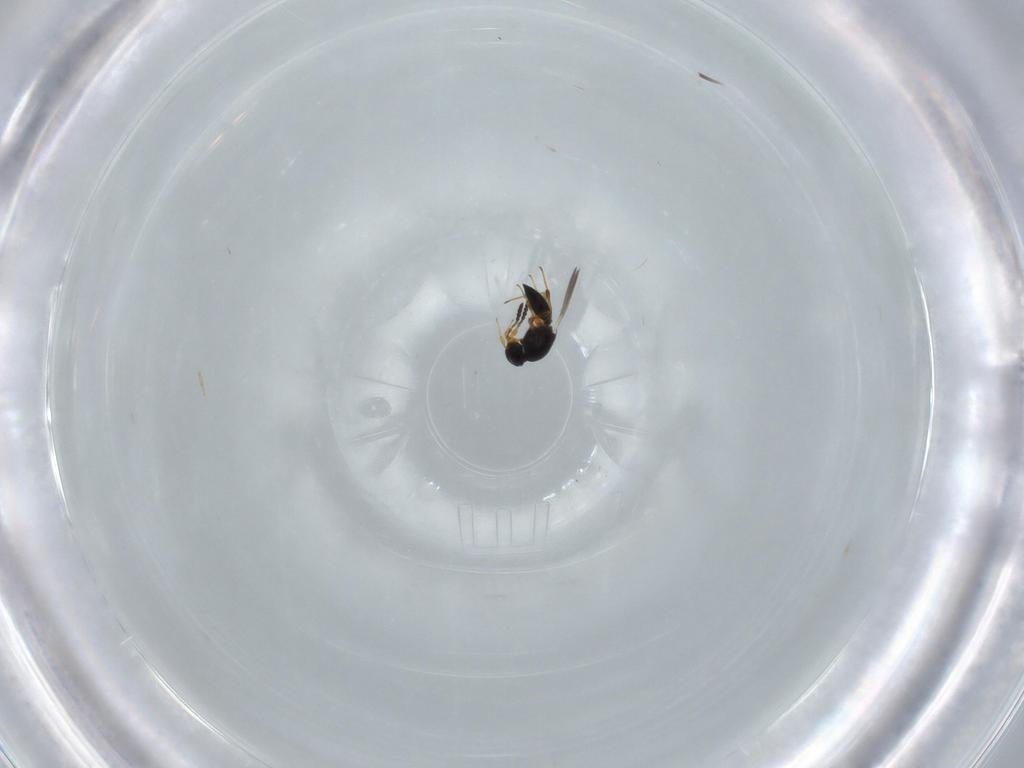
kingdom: Animalia
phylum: Arthropoda
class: Insecta
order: Hymenoptera
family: Platygastridae
